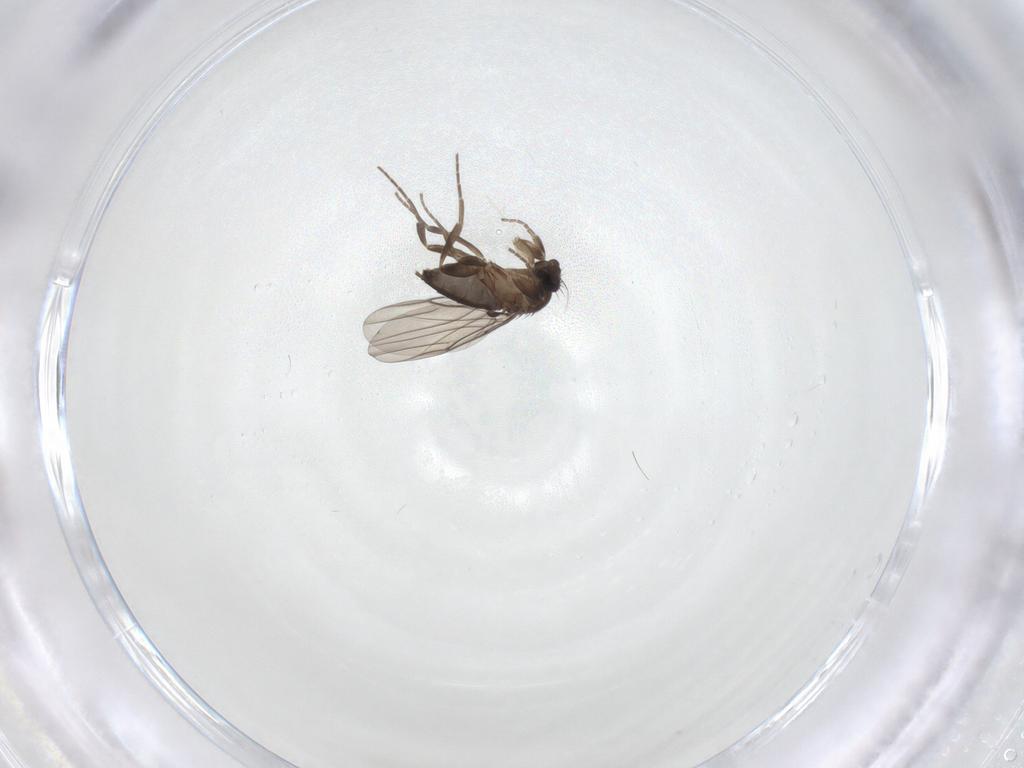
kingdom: Animalia
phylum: Arthropoda
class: Insecta
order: Diptera
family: Phoridae
